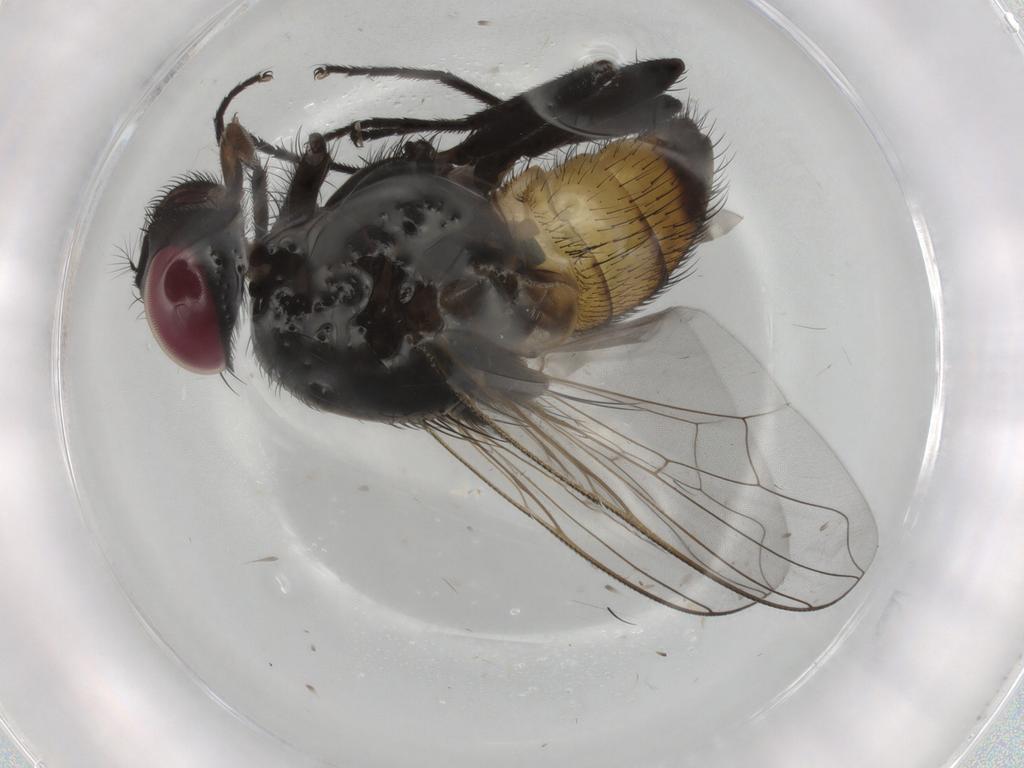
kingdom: Animalia
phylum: Arthropoda
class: Insecta
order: Diptera
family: Muscidae
